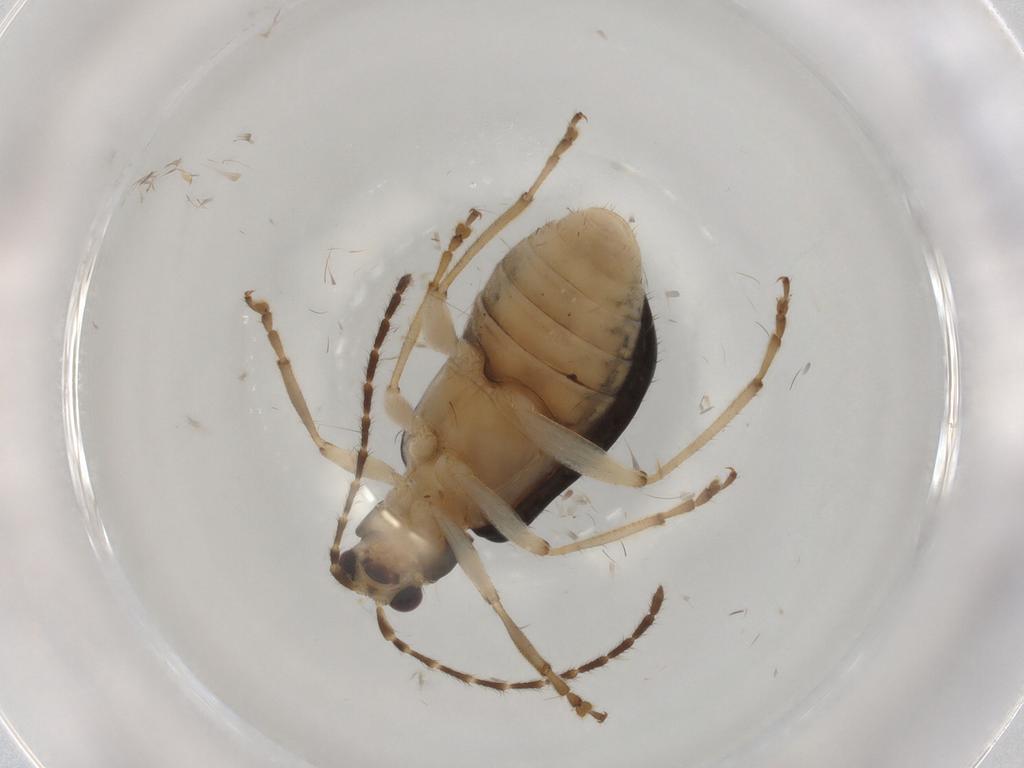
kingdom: Animalia
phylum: Arthropoda
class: Insecta
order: Coleoptera
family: Chrysomelidae
